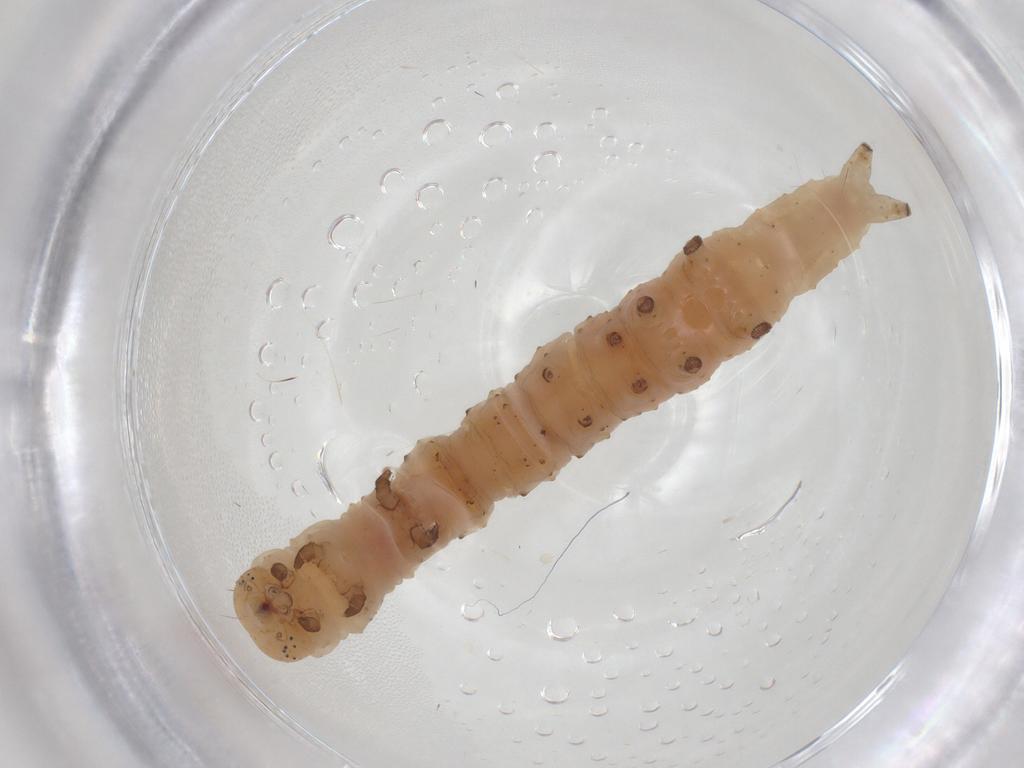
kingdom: Animalia
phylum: Arthropoda
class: Insecta
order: Lepidoptera
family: Erebidae
